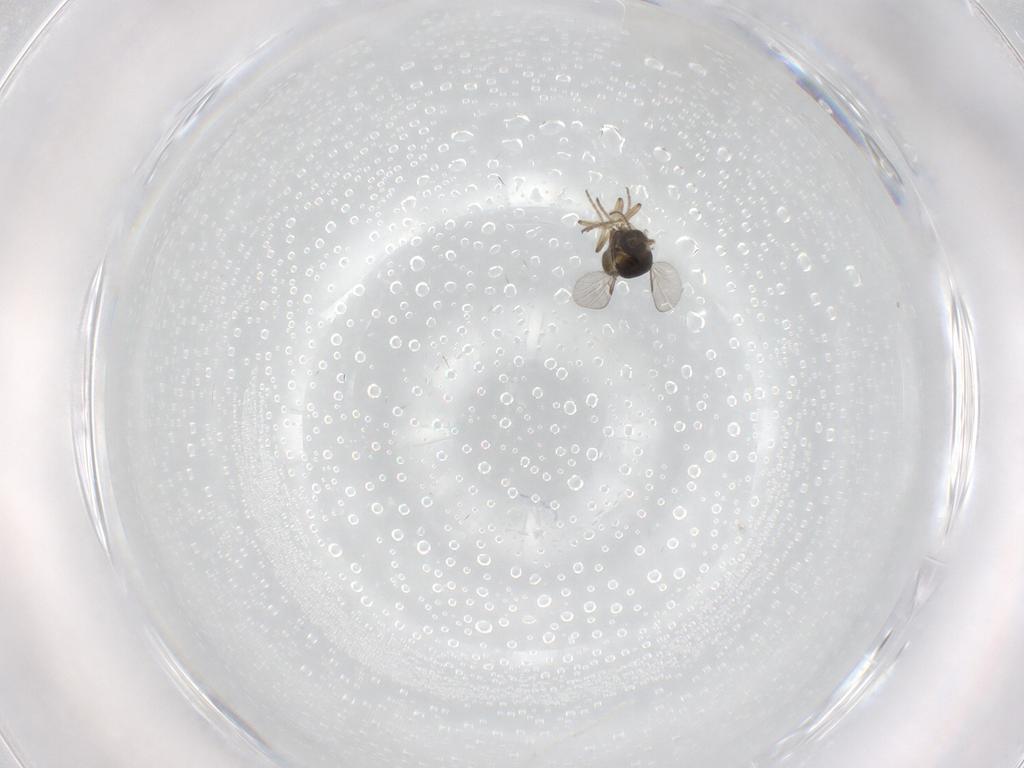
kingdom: Animalia
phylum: Arthropoda
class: Insecta
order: Diptera
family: Ceratopogonidae
